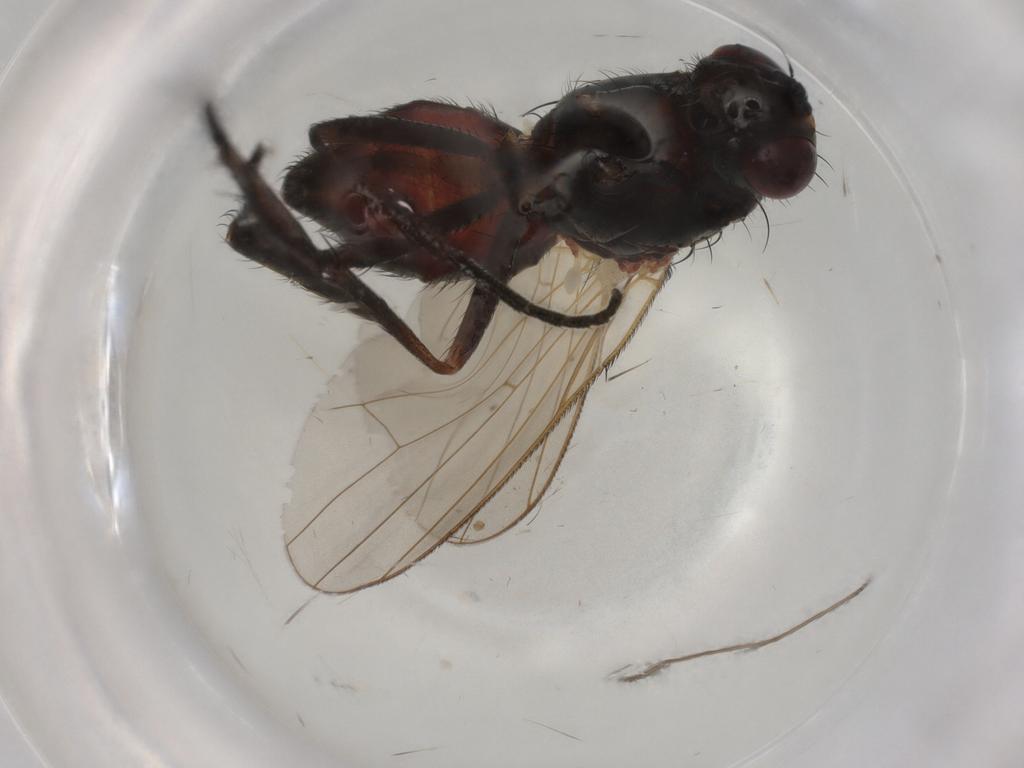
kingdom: Animalia
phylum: Arthropoda
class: Insecta
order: Diptera
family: Anthomyiidae
